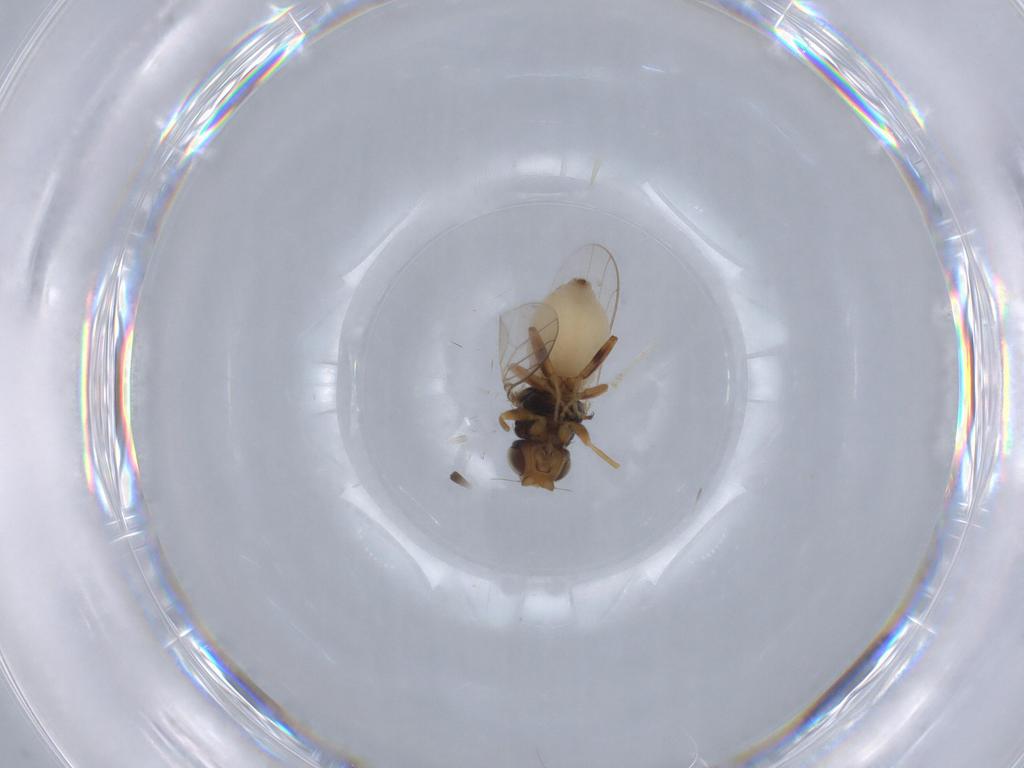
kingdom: Animalia
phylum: Arthropoda
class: Insecta
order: Diptera
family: Chloropidae
